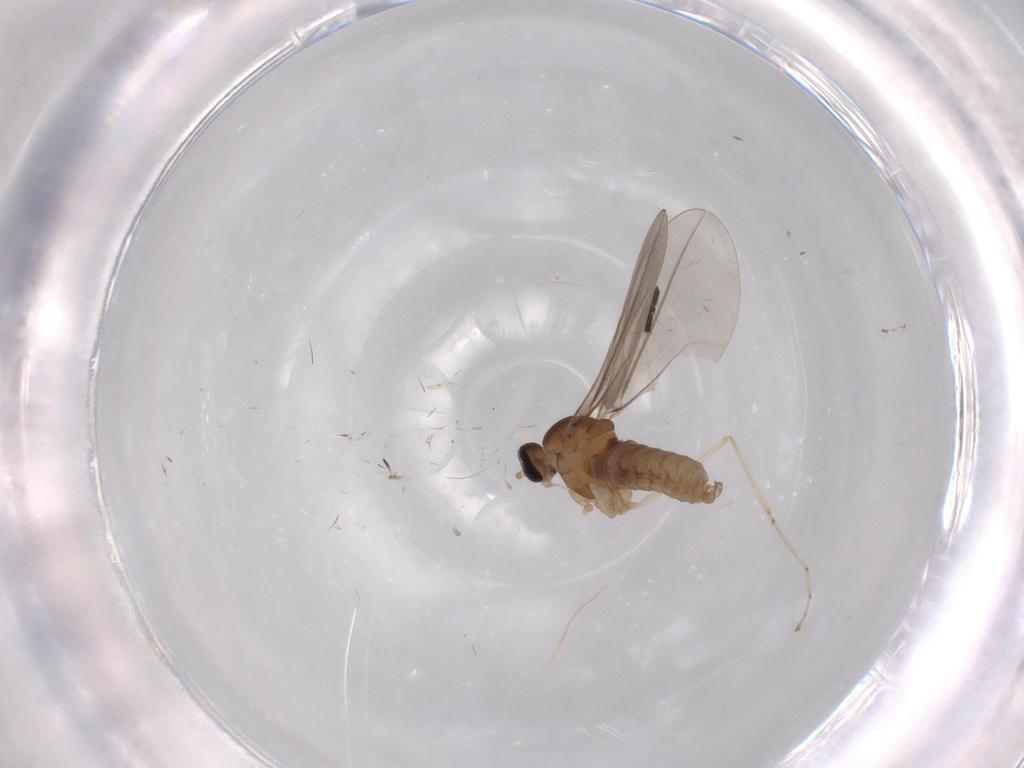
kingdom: Animalia
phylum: Arthropoda
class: Insecta
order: Diptera
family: Cecidomyiidae
